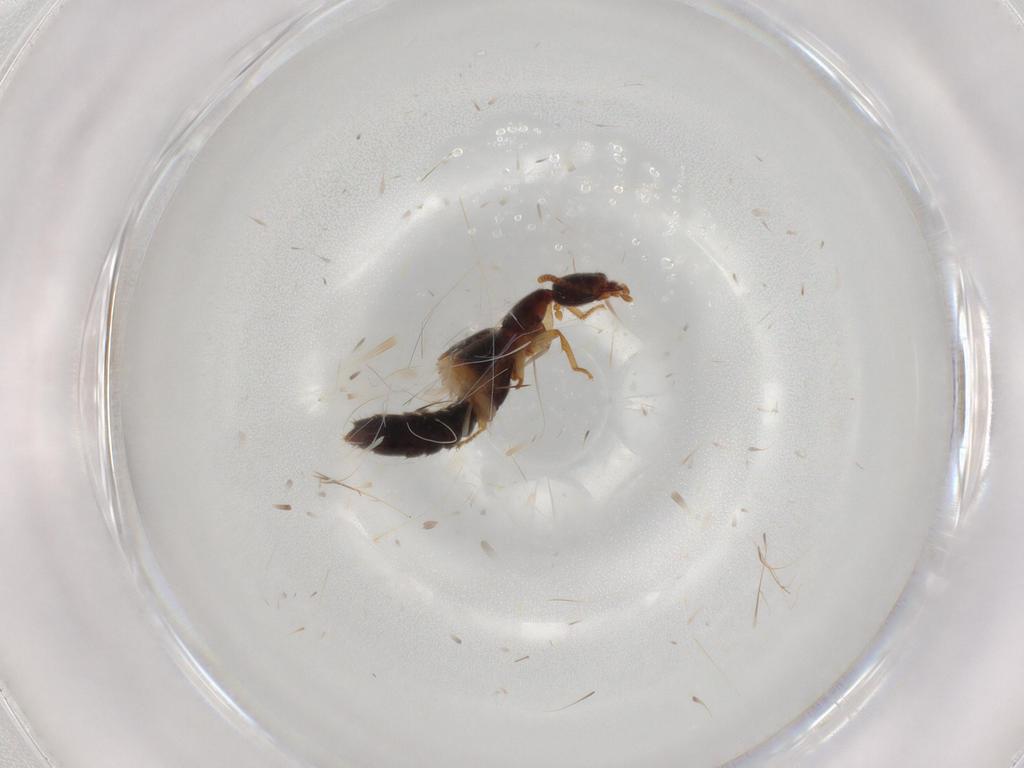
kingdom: Animalia
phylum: Arthropoda
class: Insecta
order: Coleoptera
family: Staphylinidae
